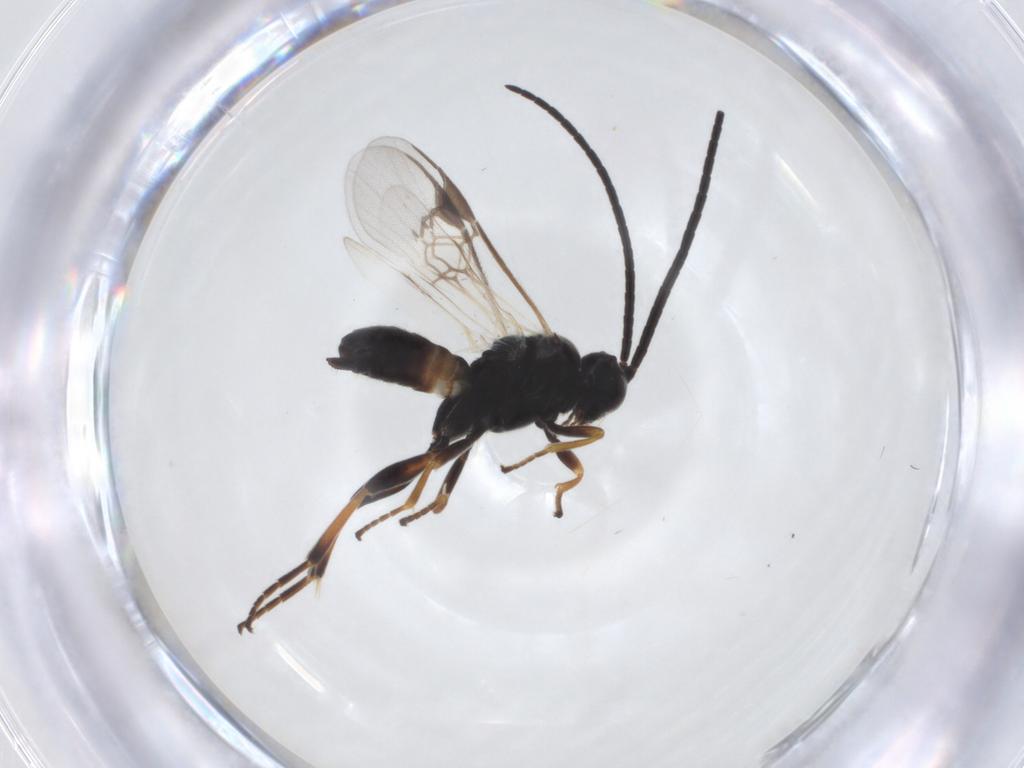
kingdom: Animalia
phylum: Arthropoda
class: Insecta
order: Hymenoptera
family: Braconidae
